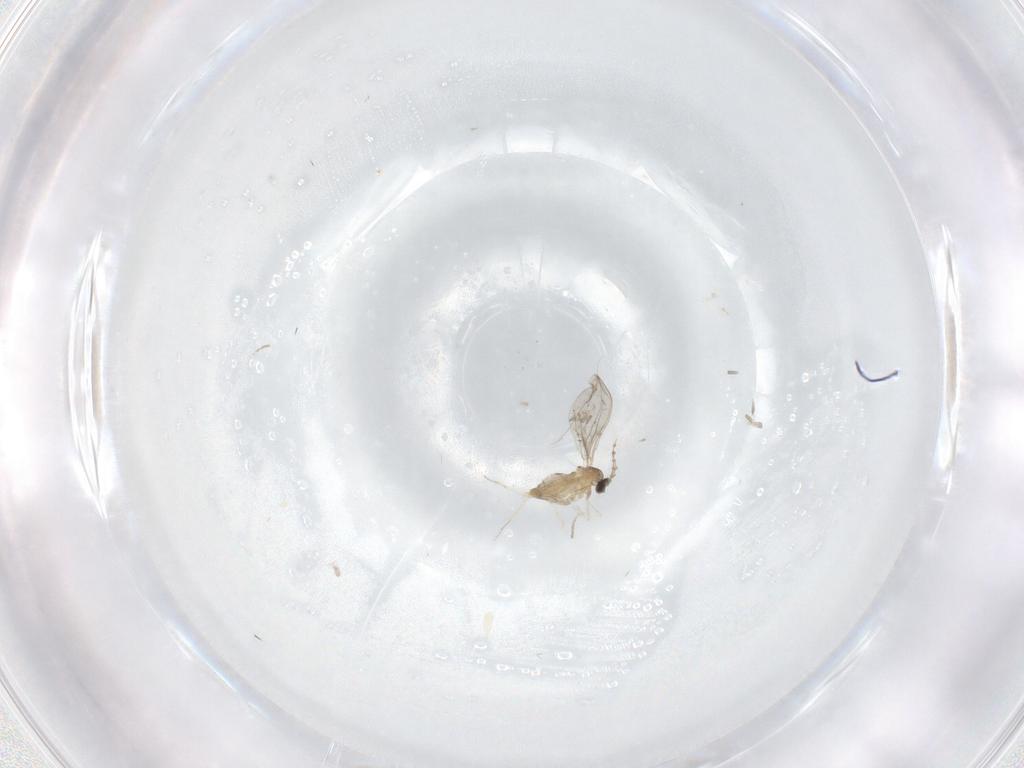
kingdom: Animalia
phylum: Arthropoda
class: Insecta
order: Diptera
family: Cecidomyiidae
